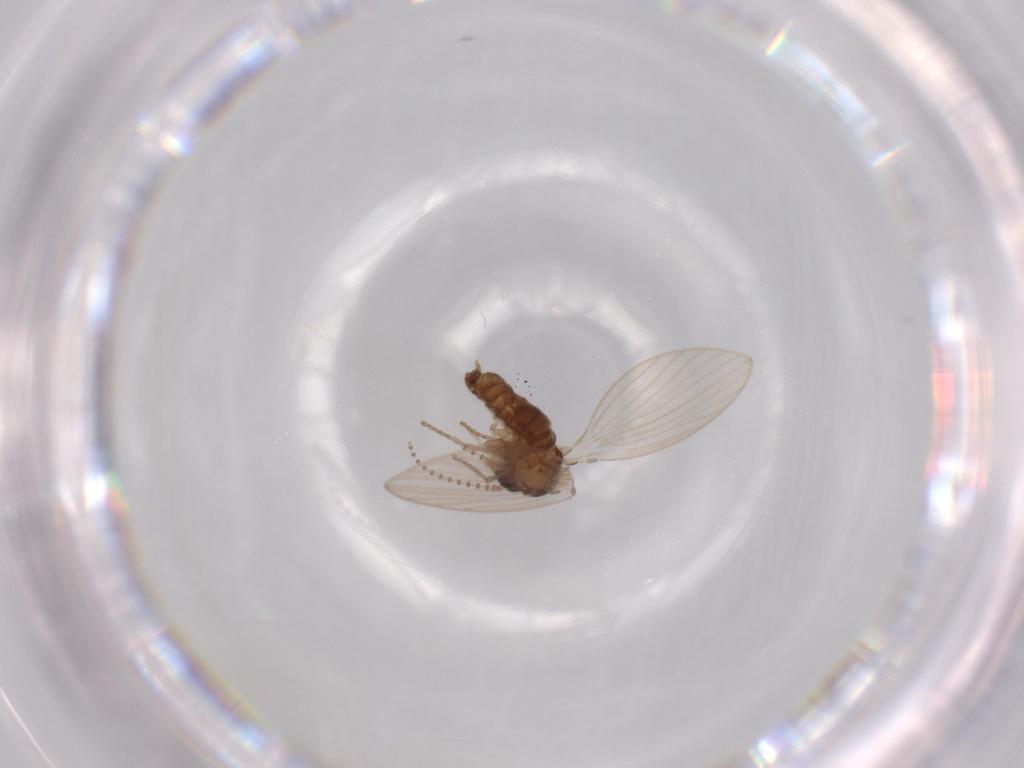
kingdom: Animalia
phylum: Arthropoda
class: Insecta
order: Diptera
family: Psychodidae
